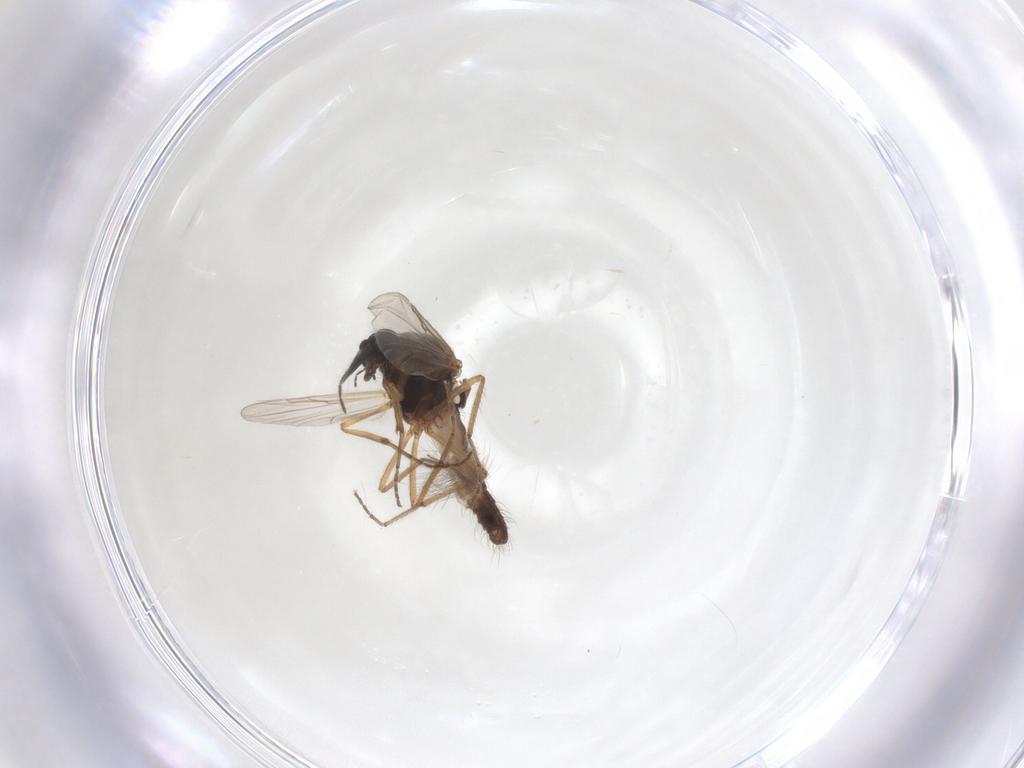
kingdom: Animalia
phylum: Arthropoda
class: Insecta
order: Diptera
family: Ceratopogonidae
